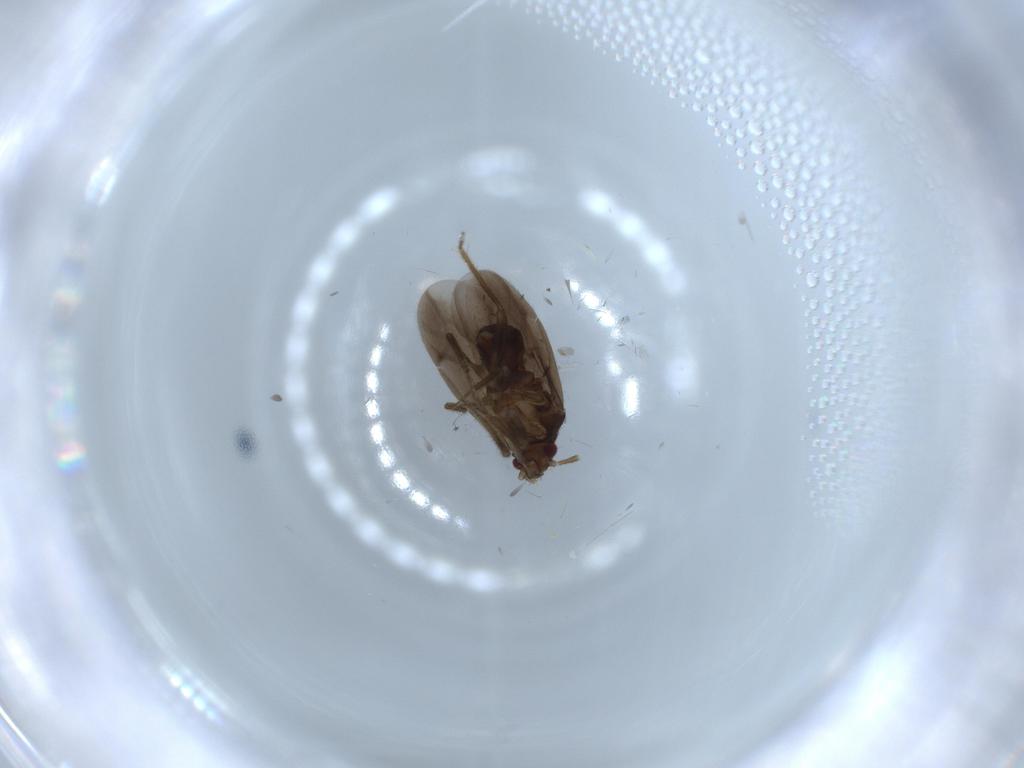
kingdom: Animalia
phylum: Arthropoda
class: Insecta
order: Hemiptera
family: Ceratocombidae
